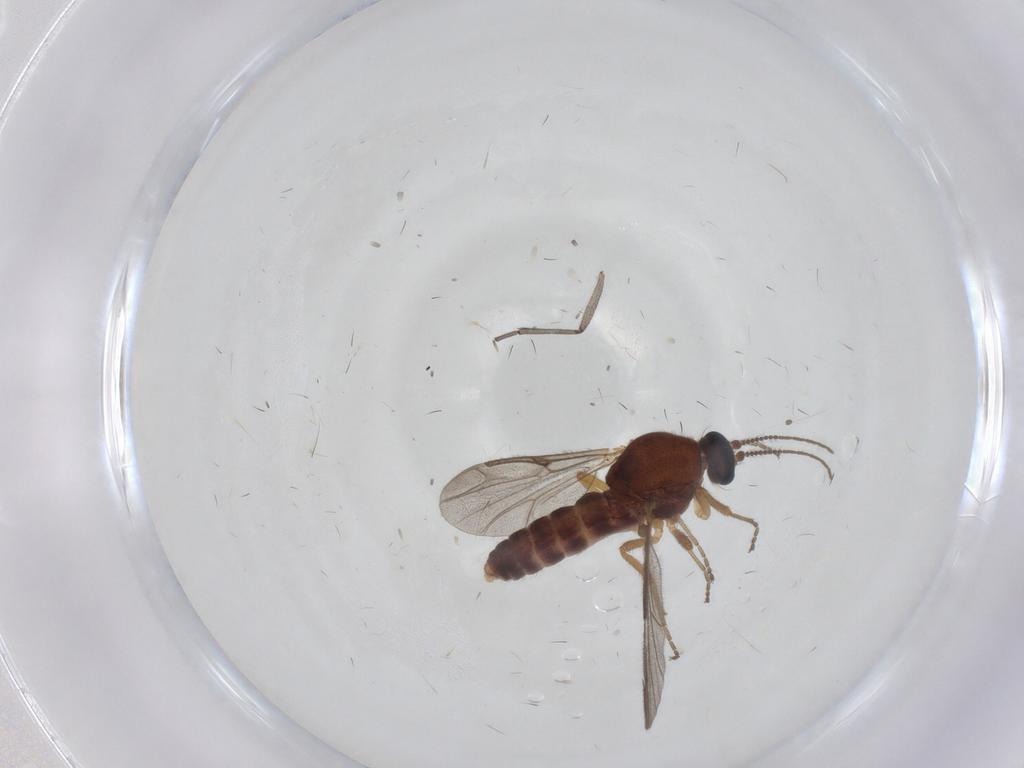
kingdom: Animalia
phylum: Arthropoda
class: Insecta
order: Diptera
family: Ceratopogonidae
